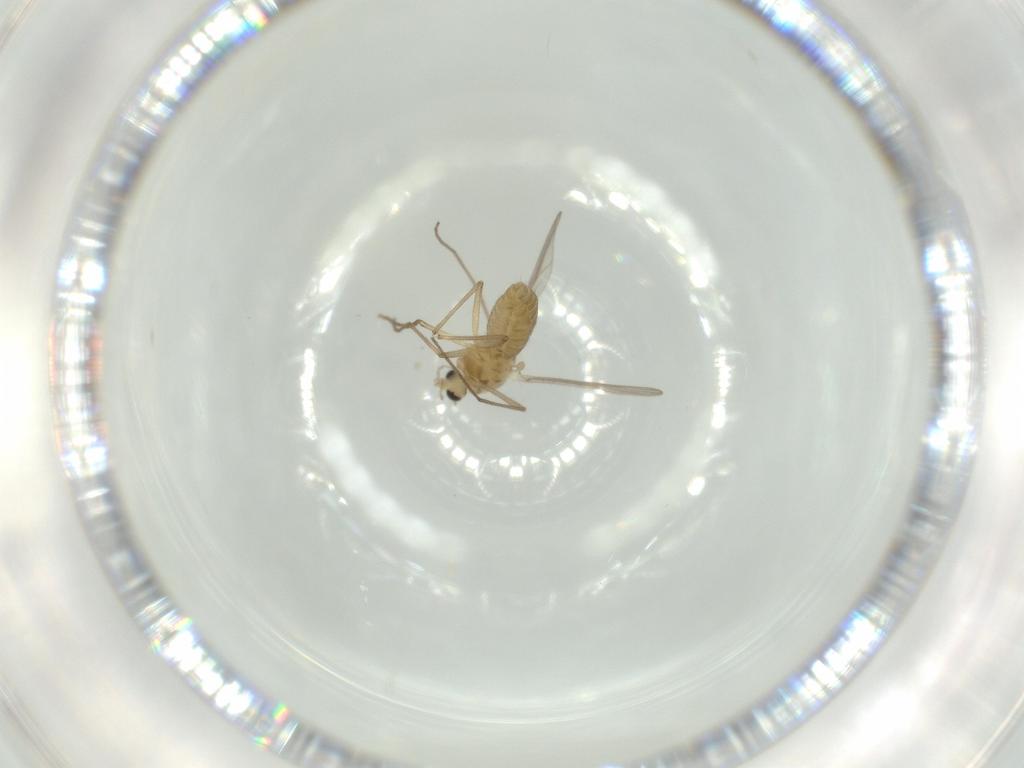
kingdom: Animalia
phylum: Arthropoda
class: Insecta
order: Diptera
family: Chironomidae
